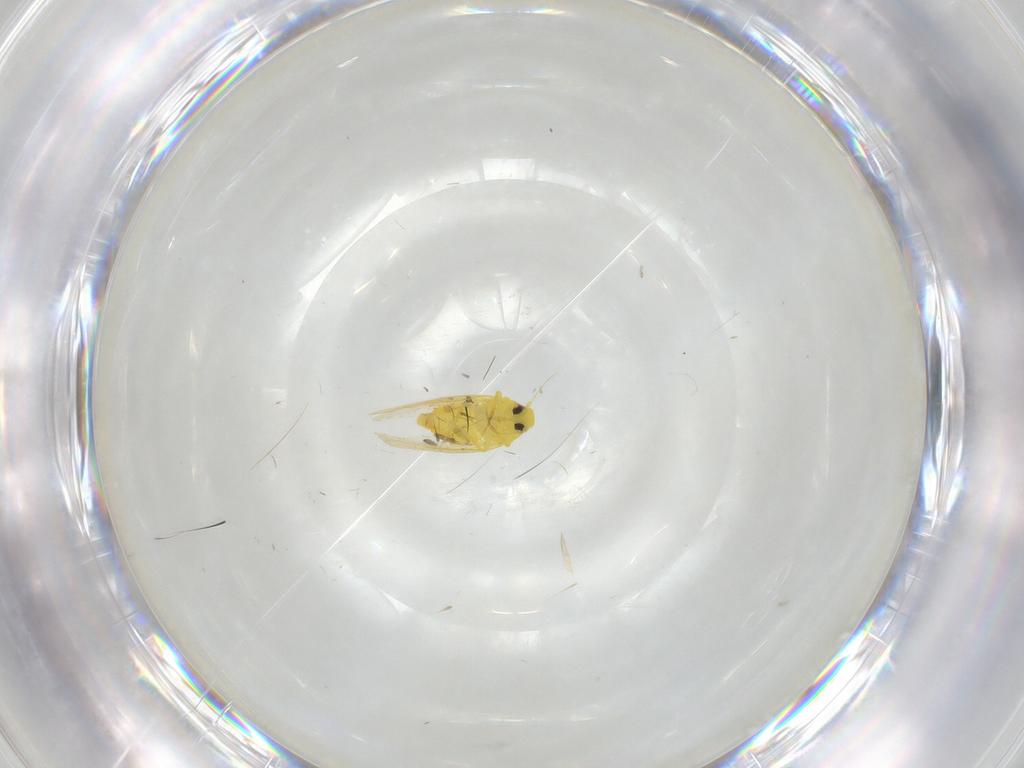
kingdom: Animalia
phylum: Arthropoda
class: Insecta
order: Hemiptera
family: Aleyrodidae
